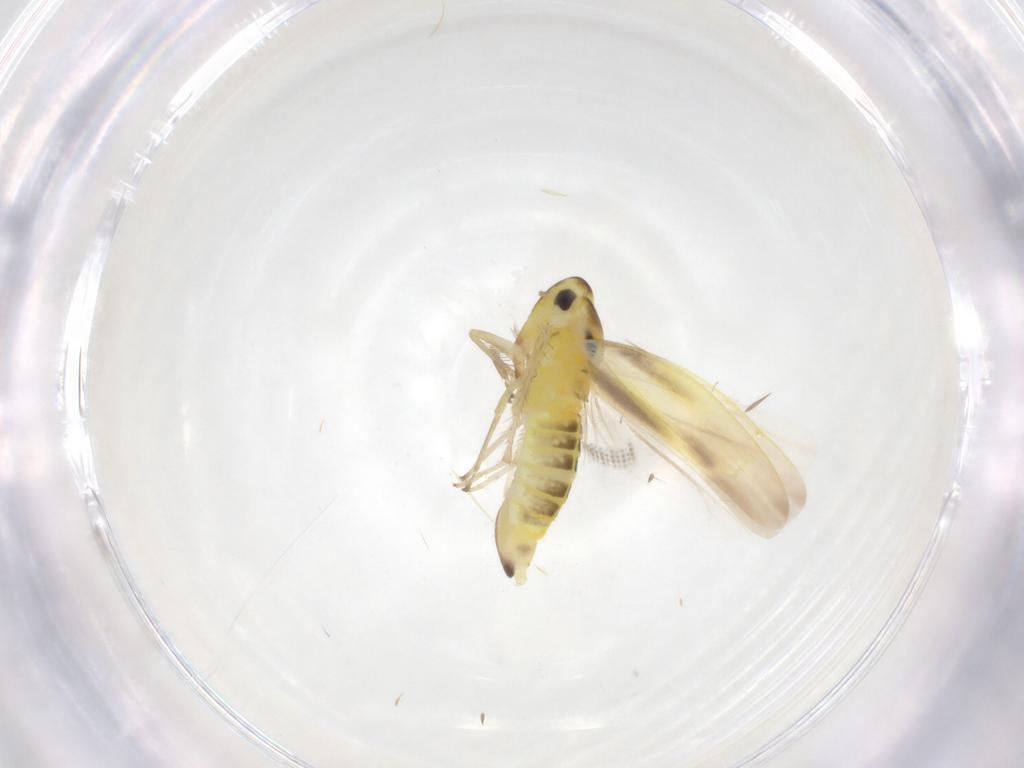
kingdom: Animalia
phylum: Arthropoda
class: Insecta
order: Hemiptera
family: Cicadellidae
